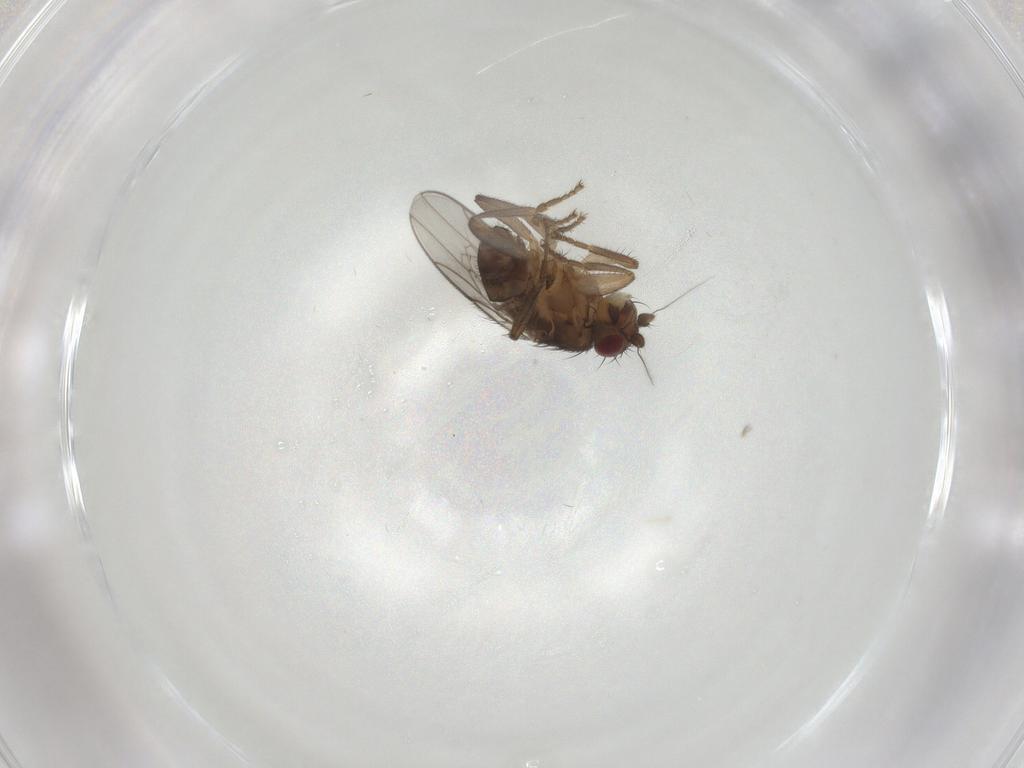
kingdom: Animalia
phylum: Arthropoda
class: Insecta
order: Diptera
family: Sphaeroceridae
